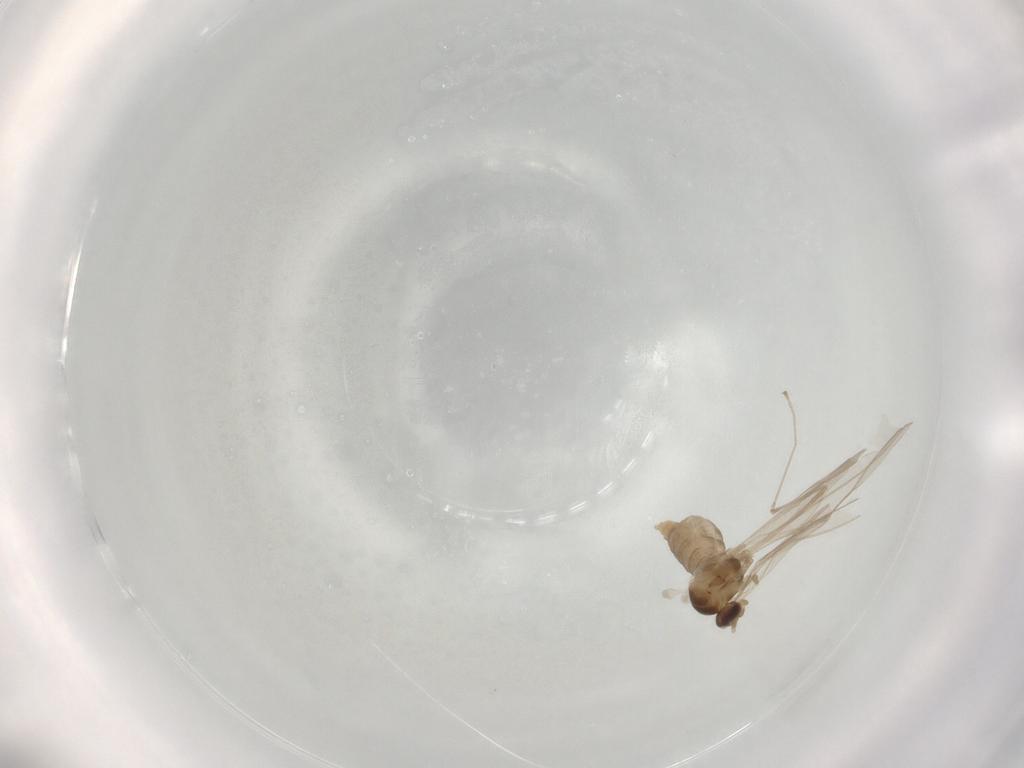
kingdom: Animalia
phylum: Arthropoda
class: Insecta
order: Diptera
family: Cecidomyiidae
